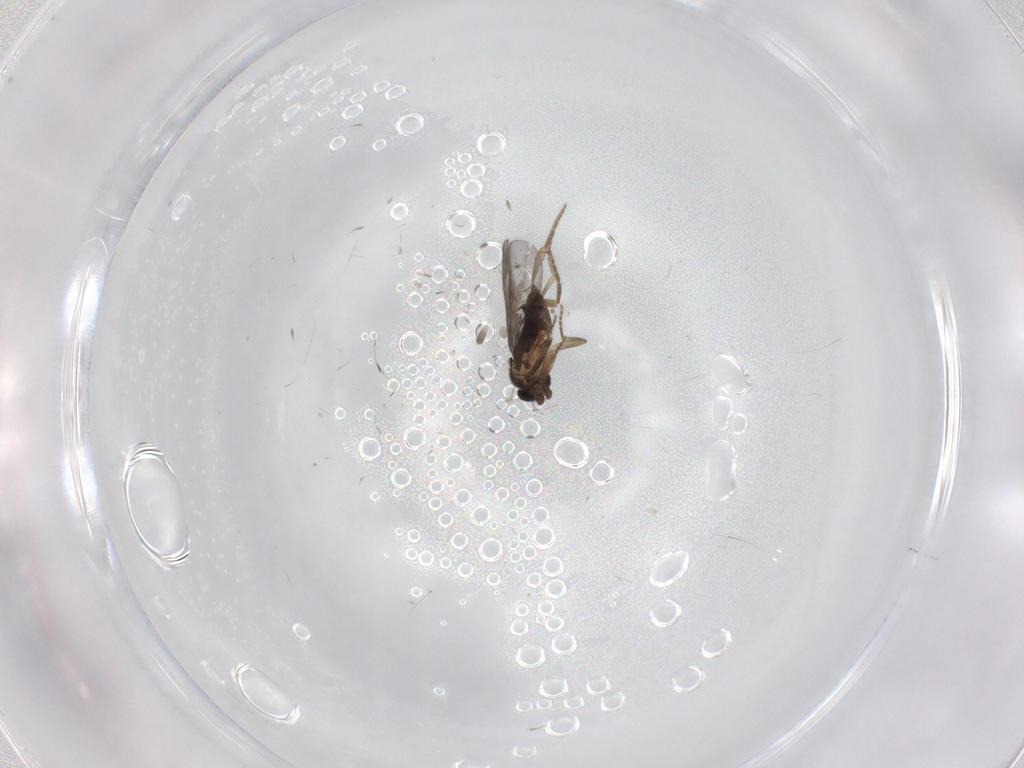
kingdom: Animalia
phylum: Arthropoda
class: Insecta
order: Diptera
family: Phoridae
